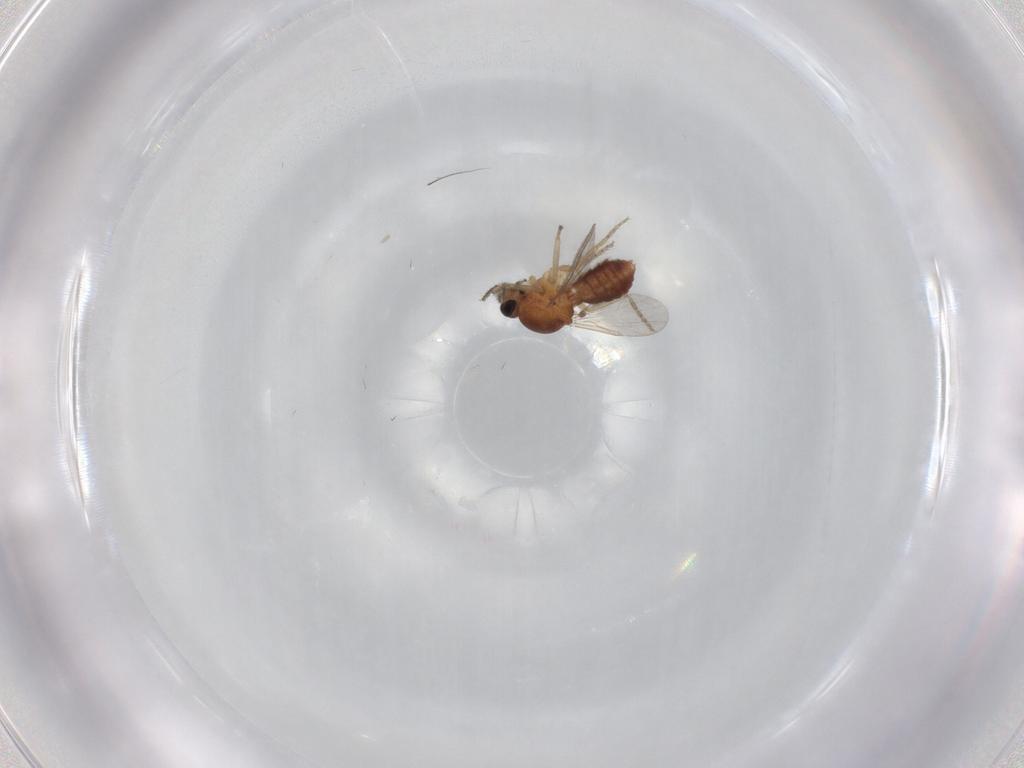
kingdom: Animalia
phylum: Arthropoda
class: Insecta
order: Diptera
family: Ceratopogonidae
